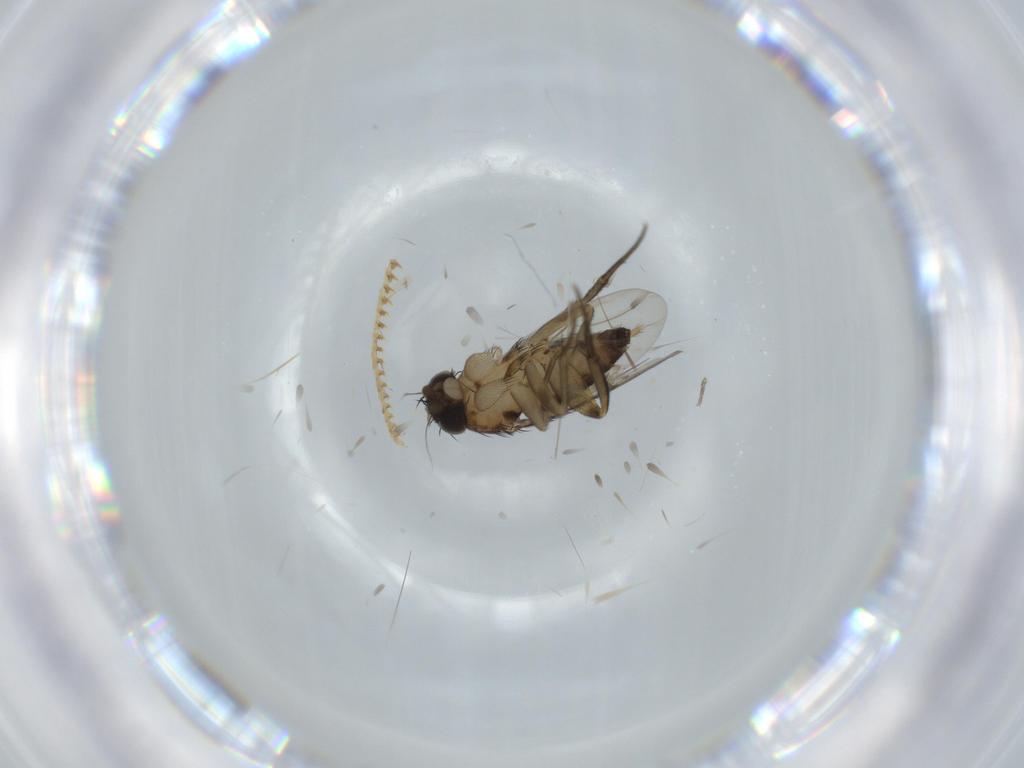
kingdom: Animalia
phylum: Arthropoda
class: Insecta
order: Diptera
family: Phoridae
